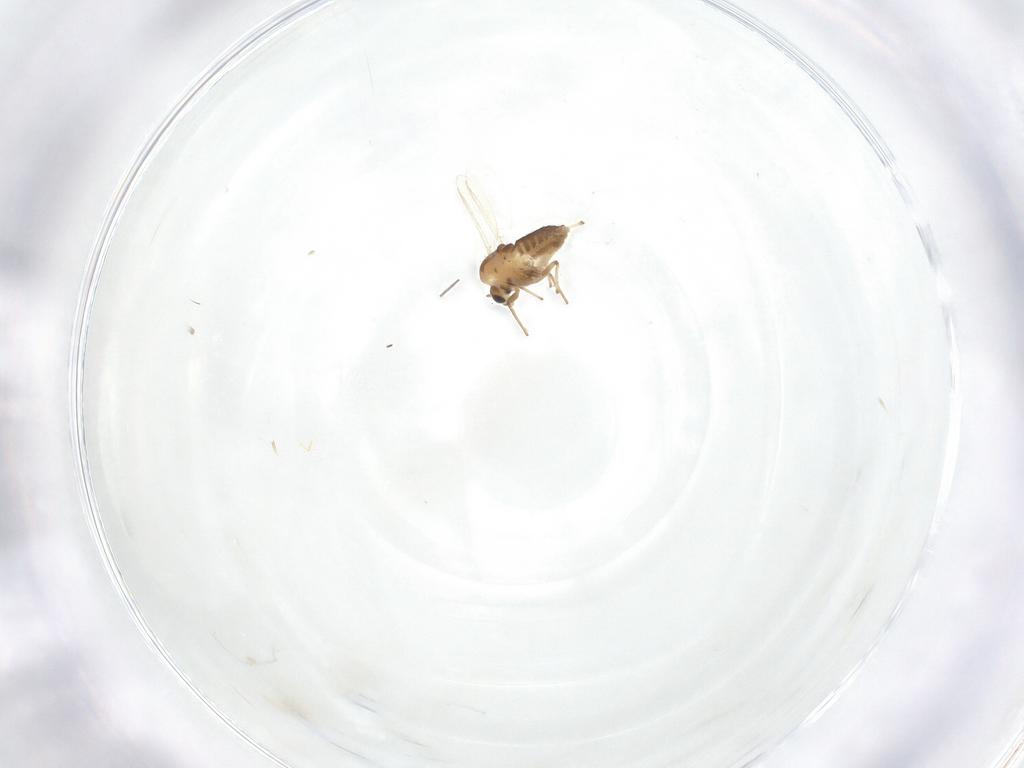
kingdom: Animalia
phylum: Arthropoda
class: Insecta
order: Diptera
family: Chironomidae
